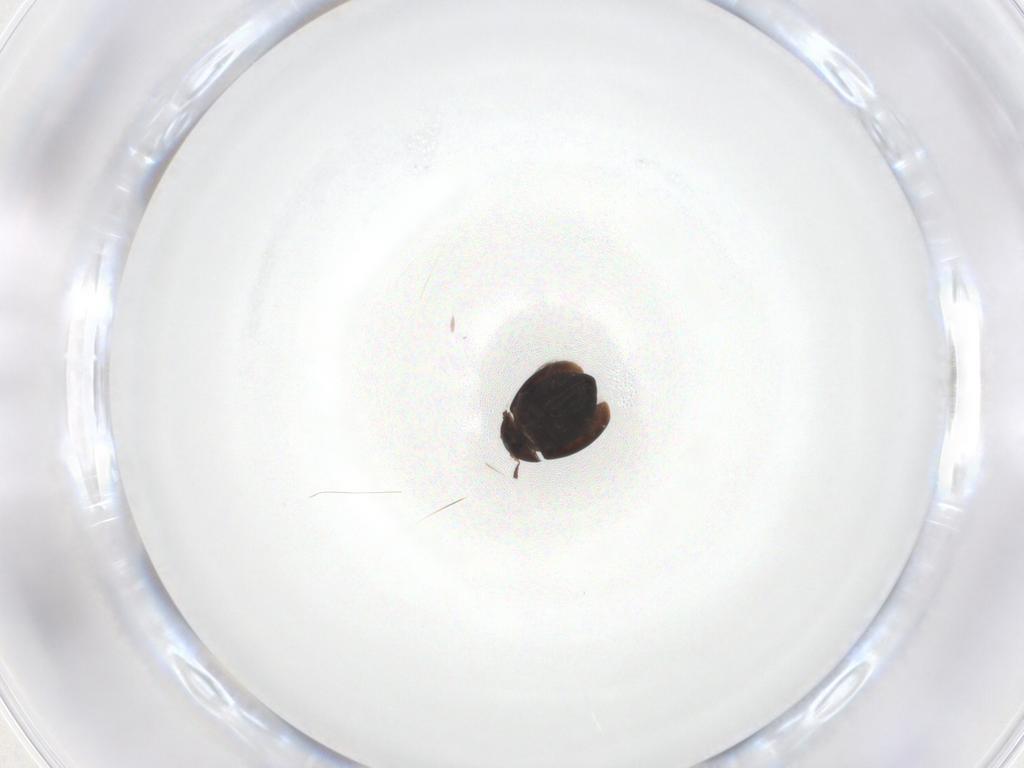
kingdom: Animalia
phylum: Arthropoda
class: Insecta
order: Coleoptera
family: Corylophidae
